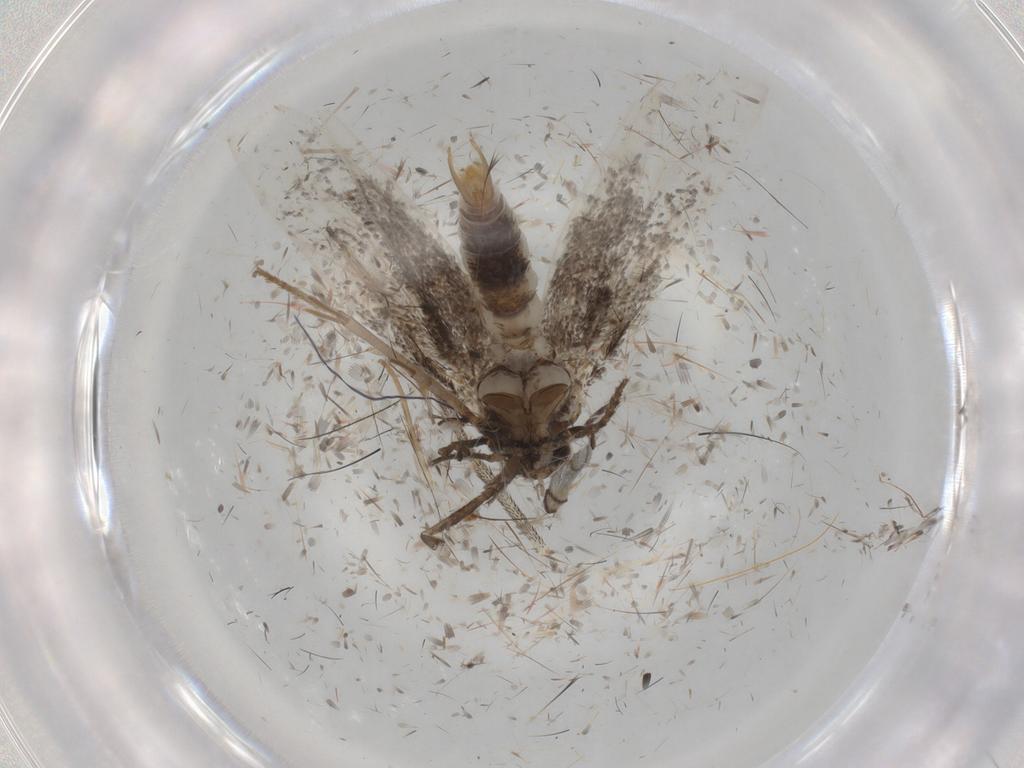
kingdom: Animalia
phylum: Arthropoda
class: Insecta
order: Lepidoptera
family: Elachistidae
